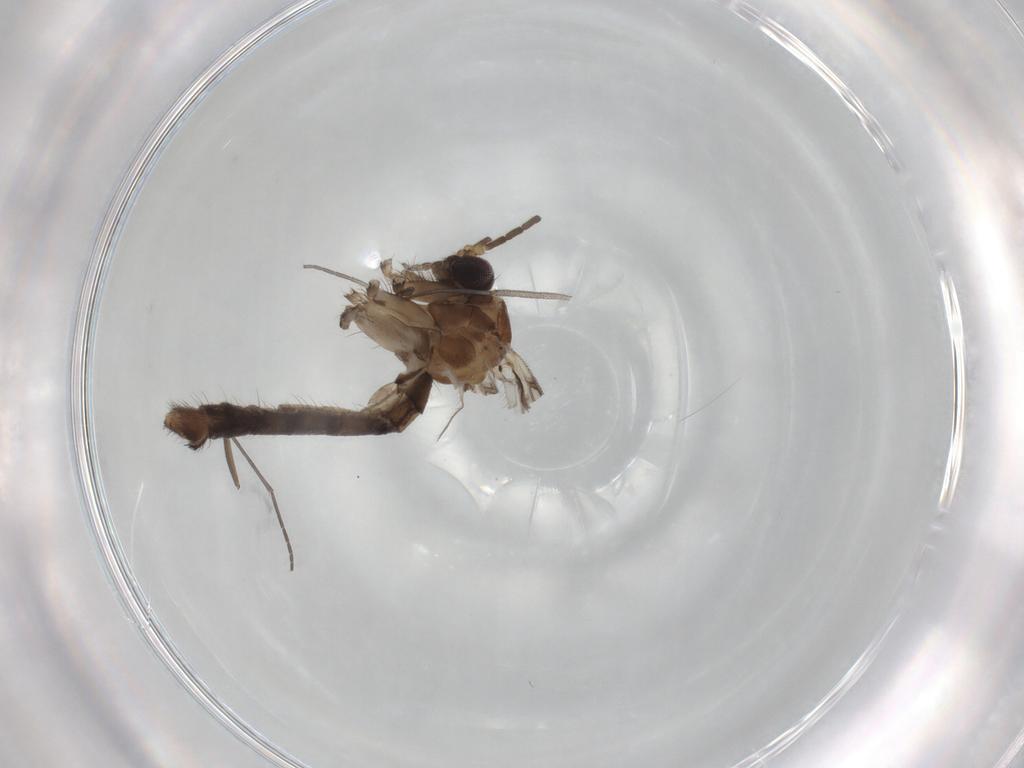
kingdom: Animalia
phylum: Arthropoda
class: Insecta
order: Diptera
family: Mycetophilidae
